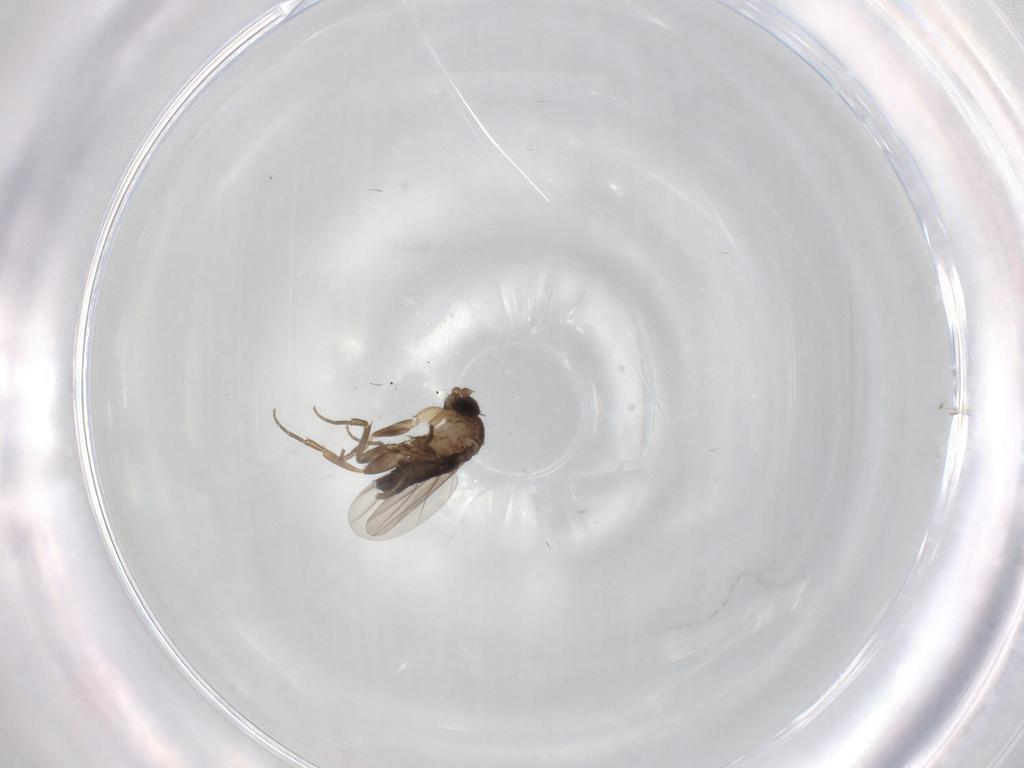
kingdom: Animalia
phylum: Arthropoda
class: Insecta
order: Diptera
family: Phoridae
